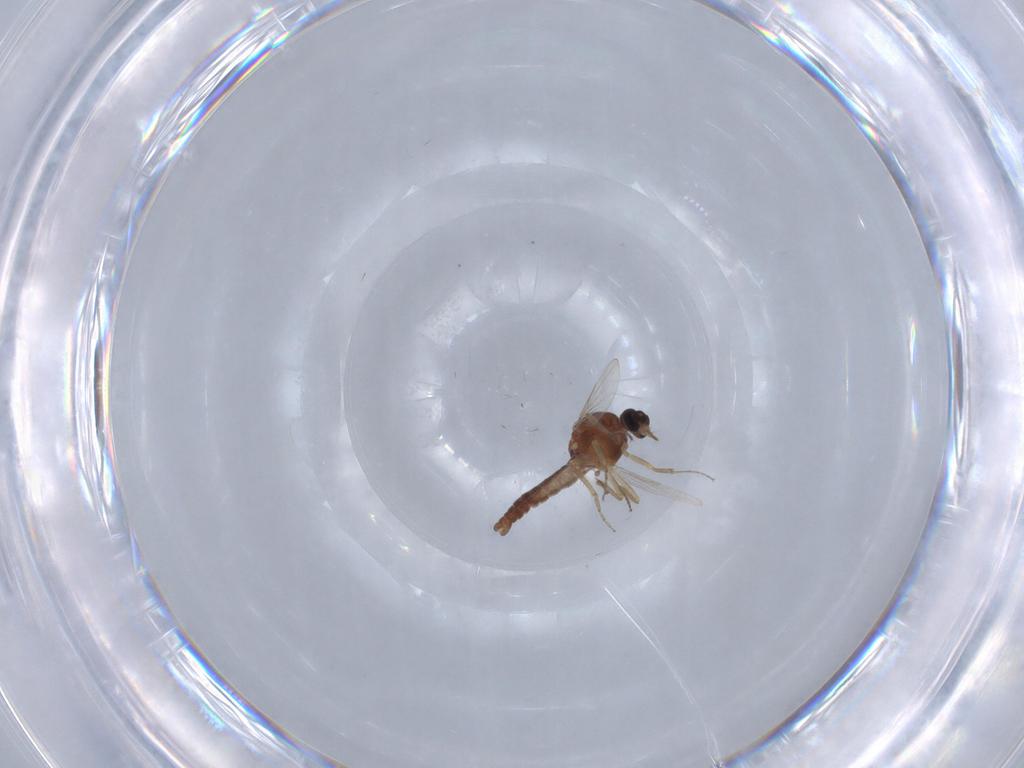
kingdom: Animalia
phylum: Arthropoda
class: Insecta
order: Diptera
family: Ceratopogonidae
